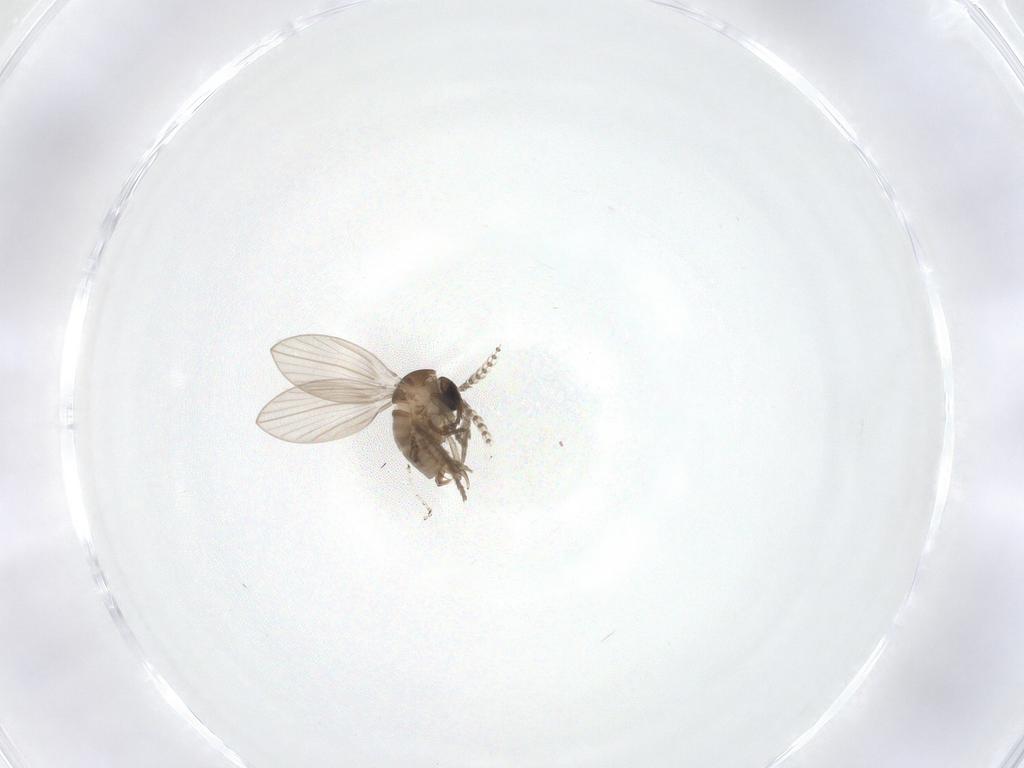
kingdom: Animalia
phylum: Arthropoda
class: Insecta
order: Diptera
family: Psychodidae
